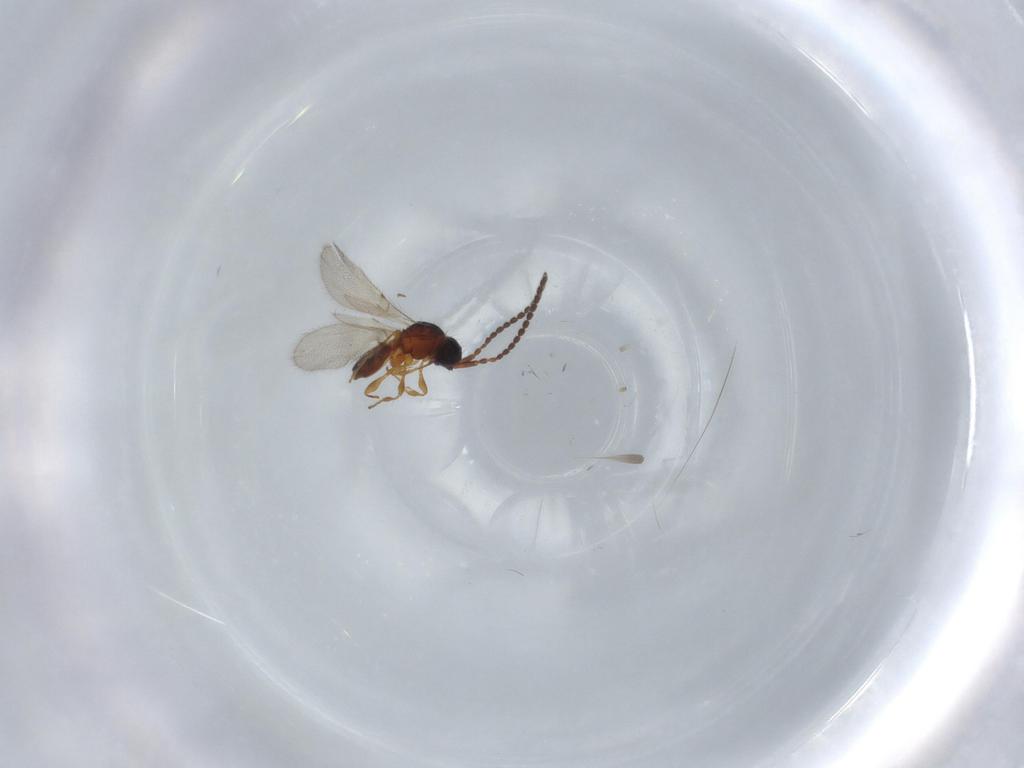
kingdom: Animalia
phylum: Arthropoda
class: Insecta
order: Hymenoptera
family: Diapriidae
